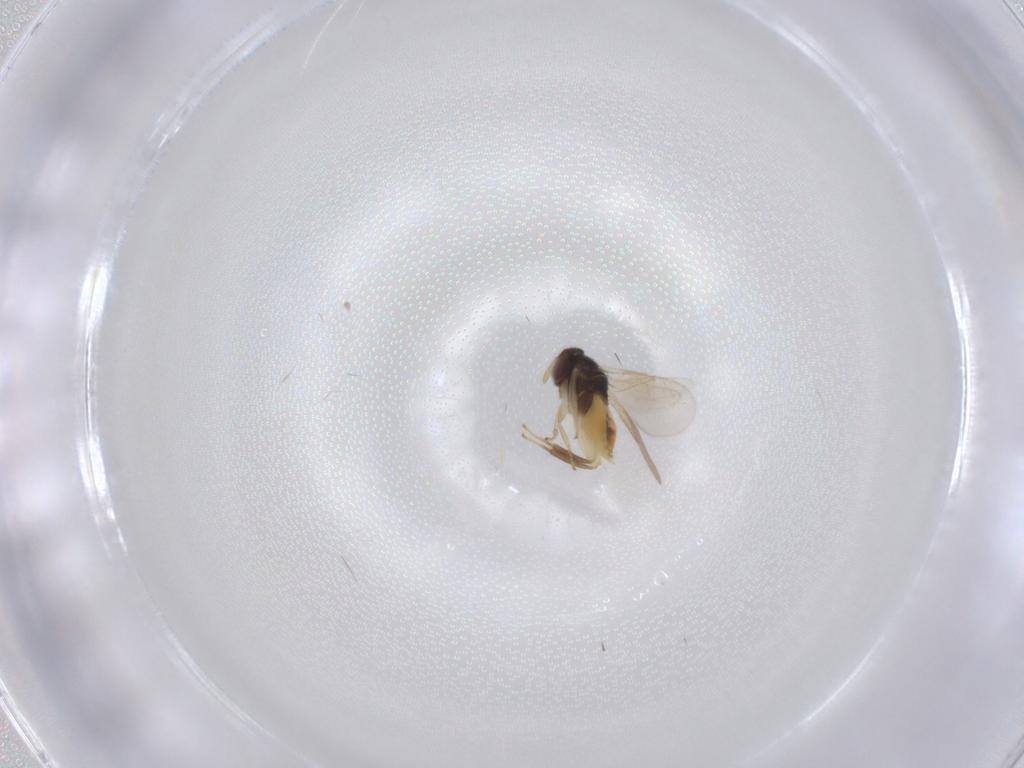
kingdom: Animalia
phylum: Arthropoda
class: Insecta
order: Hymenoptera
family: Aphelinidae
